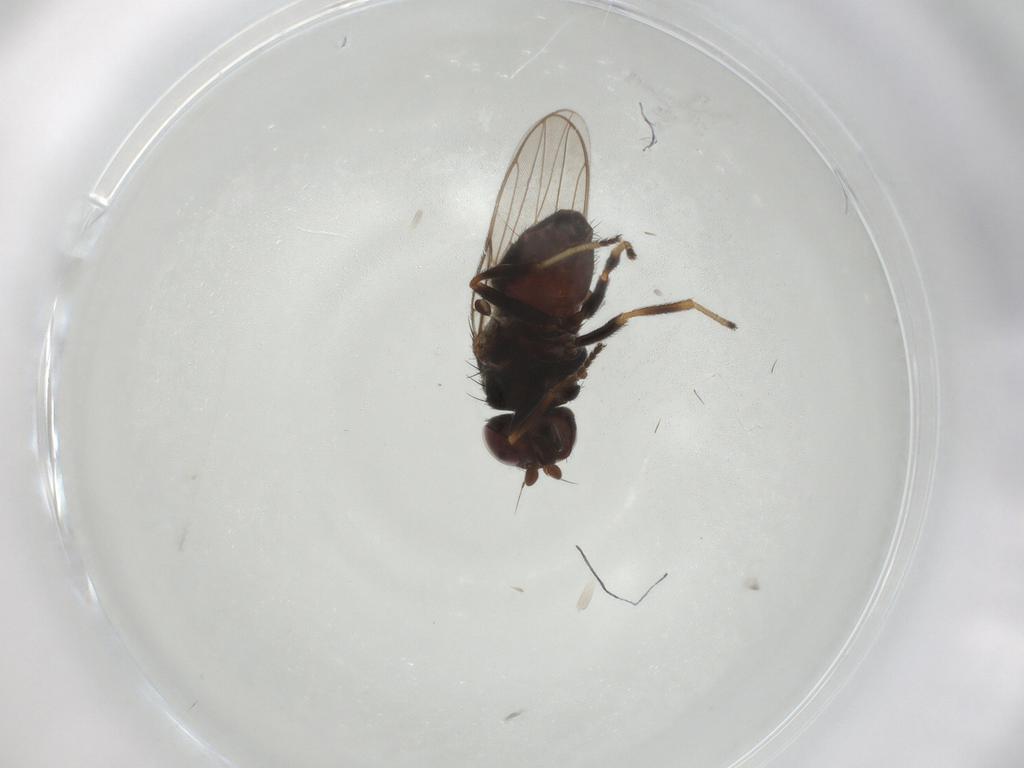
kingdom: Animalia
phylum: Arthropoda
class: Insecta
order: Diptera
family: Chloropidae
